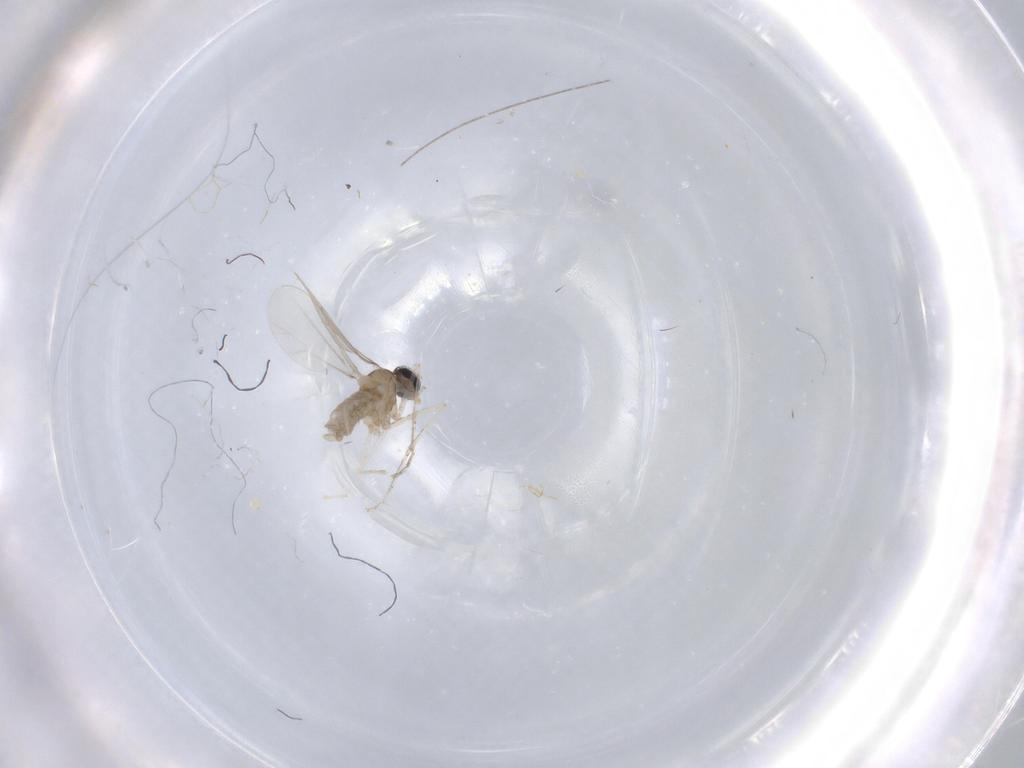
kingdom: Animalia
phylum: Arthropoda
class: Insecta
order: Diptera
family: Cecidomyiidae
